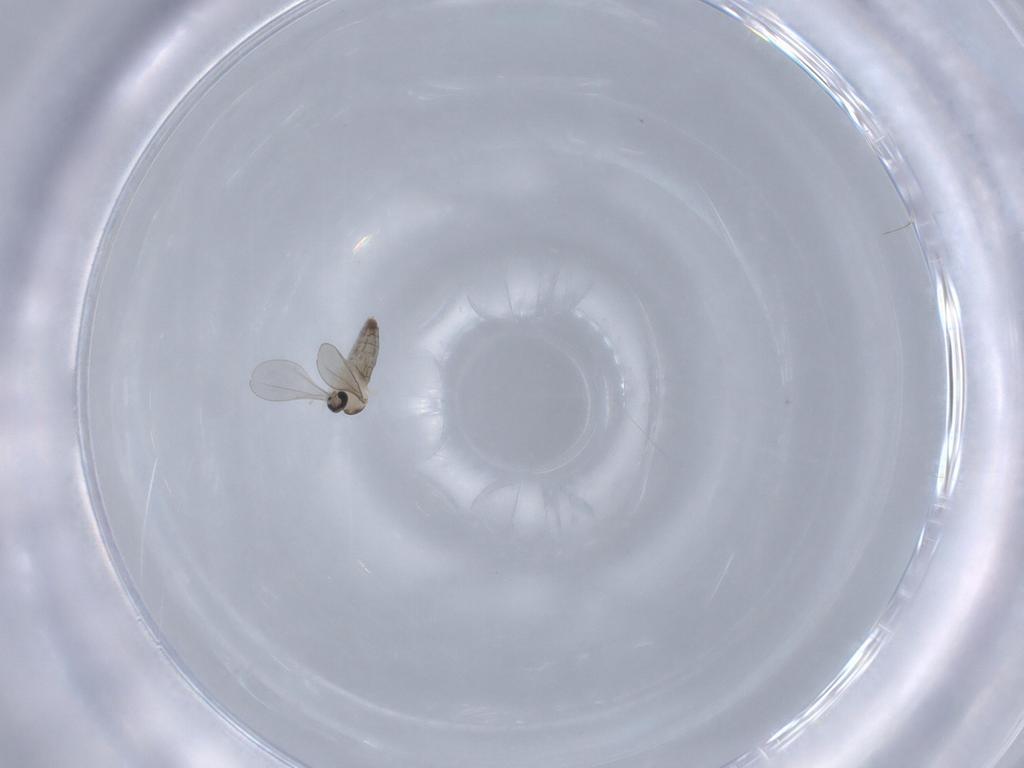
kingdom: Animalia
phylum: Arthropoda
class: Insecta
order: Diptera
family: Cecidomyiidae
